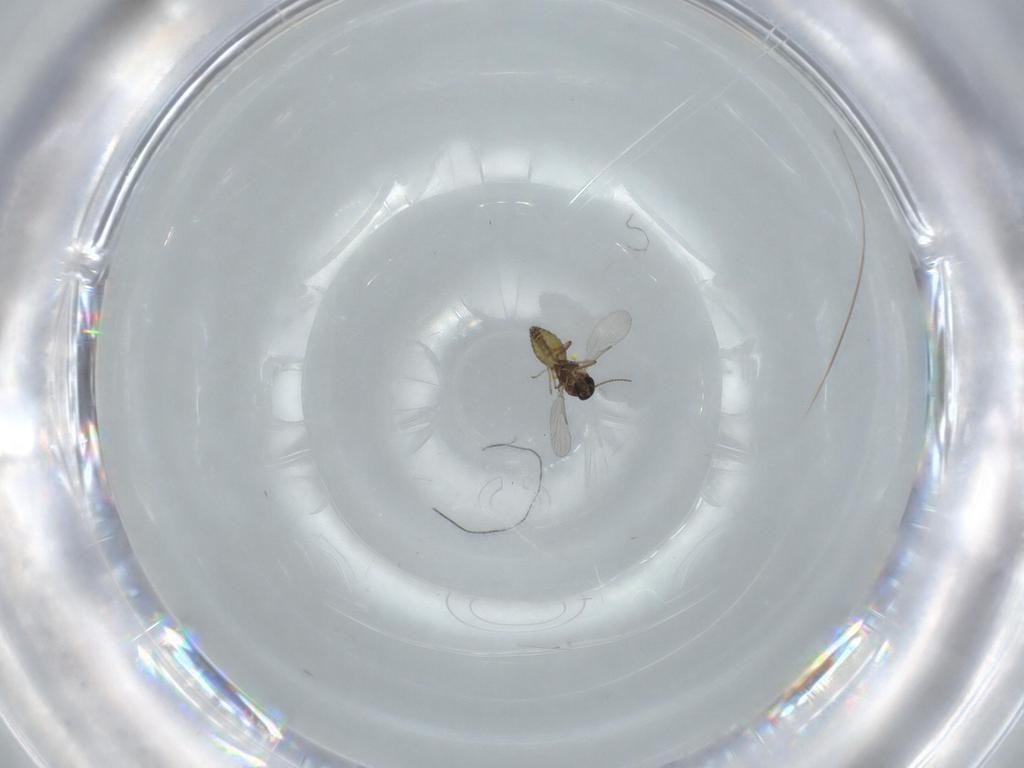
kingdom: Animalia
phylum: Arthropoda
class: Insecta
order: Diptera
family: Ceratopogonidae
